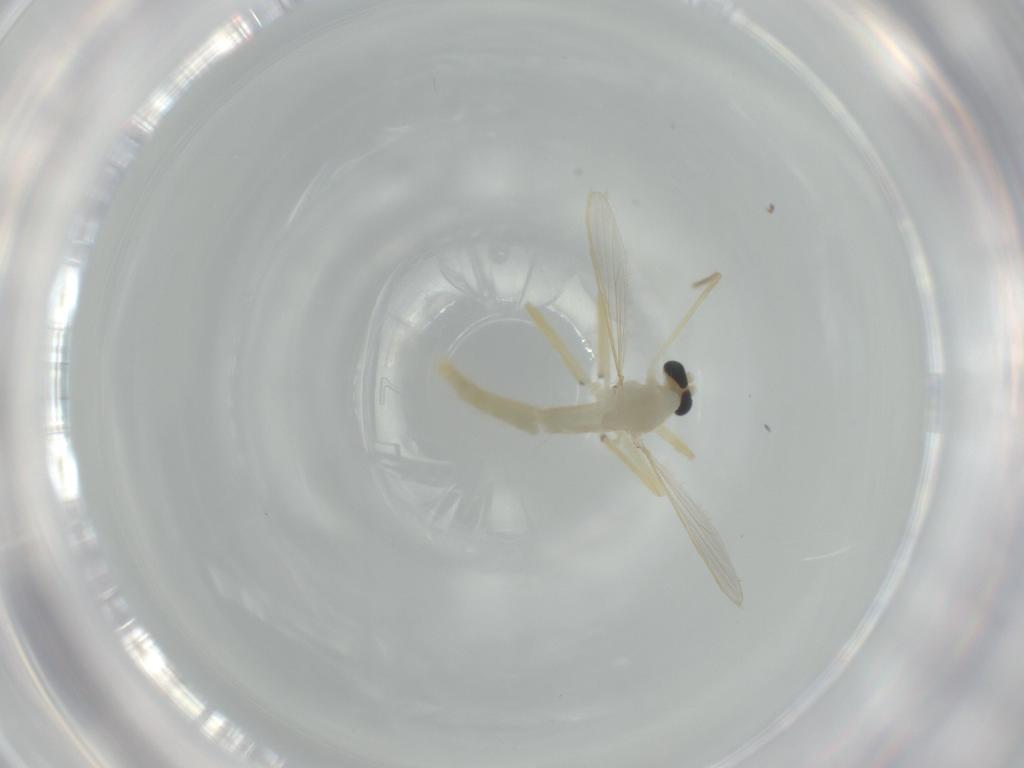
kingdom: Animalia
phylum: Arthropoda
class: Insecta
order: Diptera
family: Chironomidae
